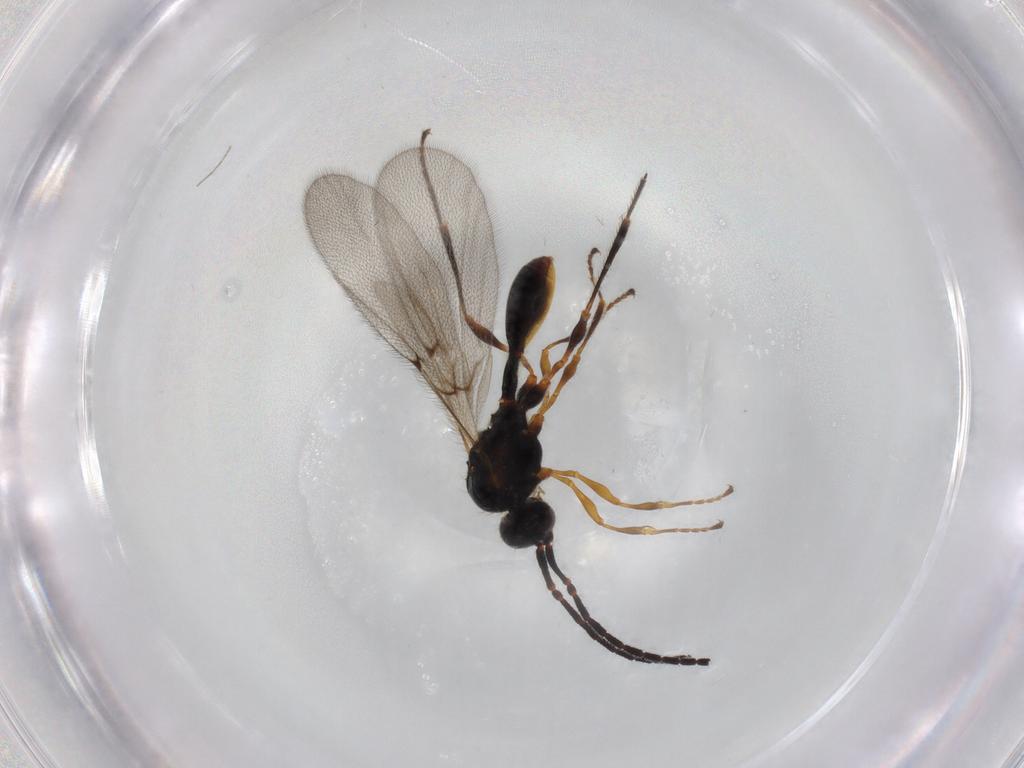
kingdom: Animalia
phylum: Arthropoda
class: Insecta
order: Hymenoptera
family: Diapriidae
